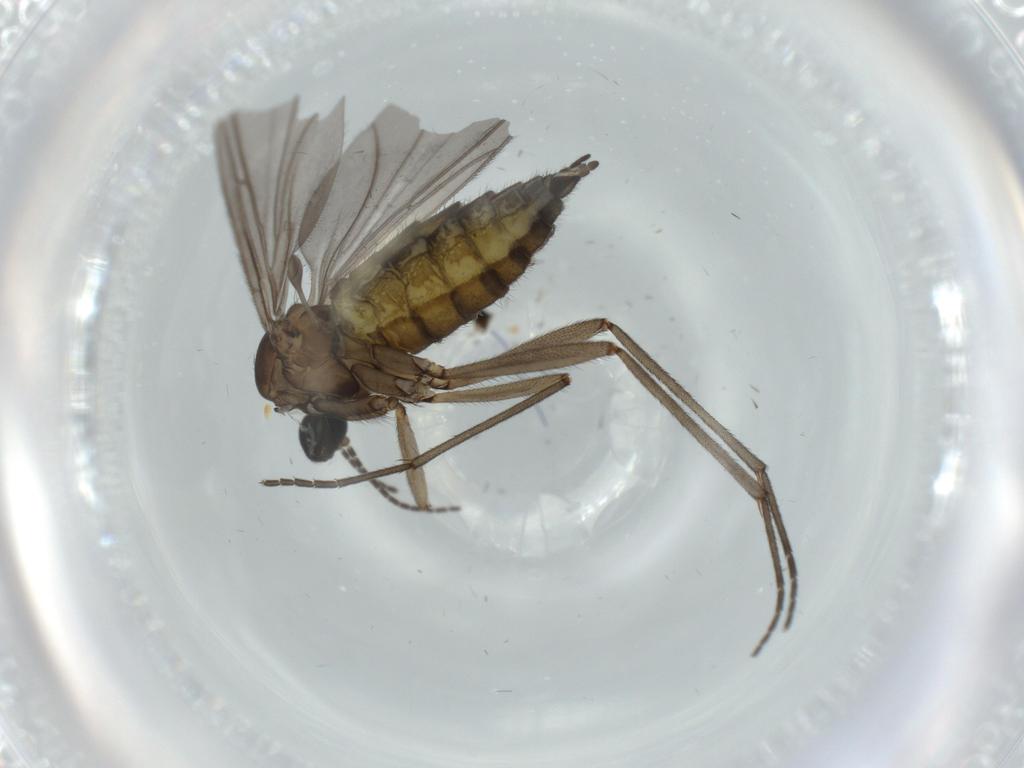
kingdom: Animalia
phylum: Arthropoda
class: Insecta
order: Diptera
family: Sciaridae
